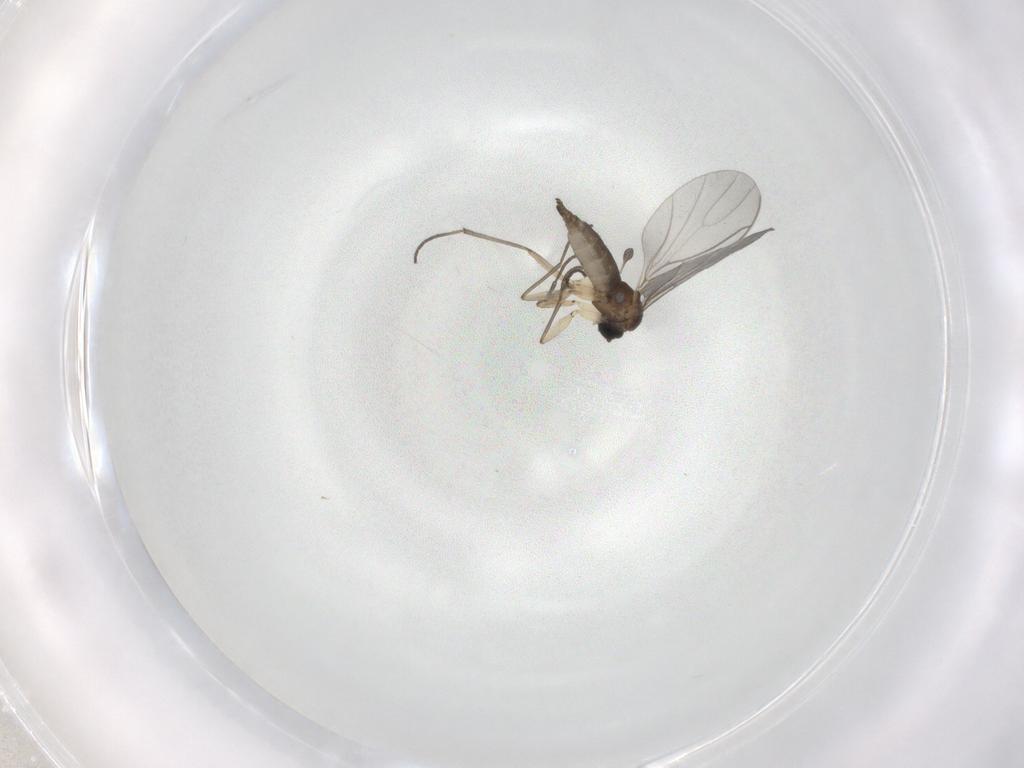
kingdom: Animalia
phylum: Arthropoda
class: Insecta
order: Diptera
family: Sciaridae
